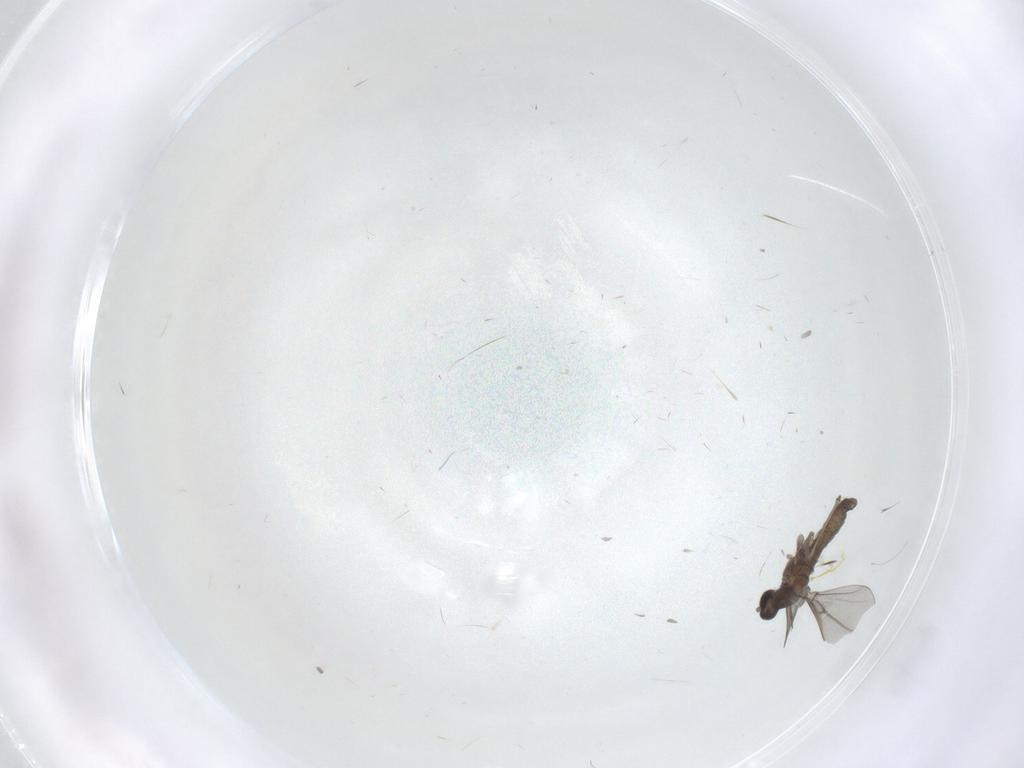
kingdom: Animalia
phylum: Arthropoda
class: Insecta
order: Diptera
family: Cecidomyiidae
